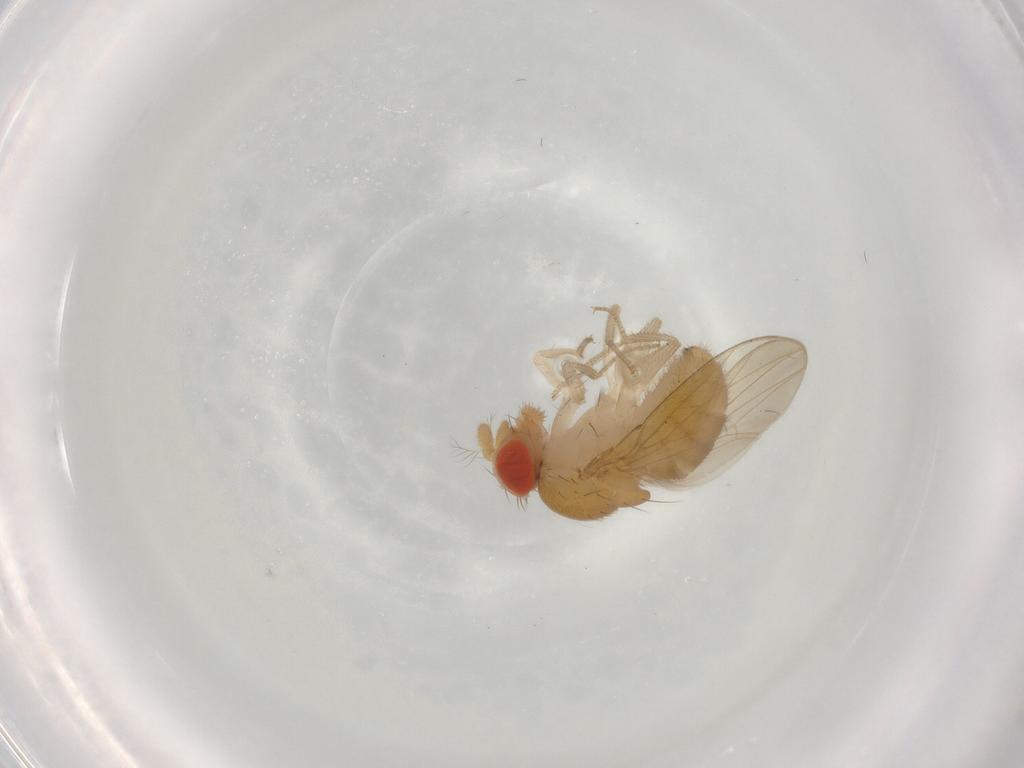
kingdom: Animalia
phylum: Arthropoda
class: Insecta
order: Diptera
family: Drosophilidae
